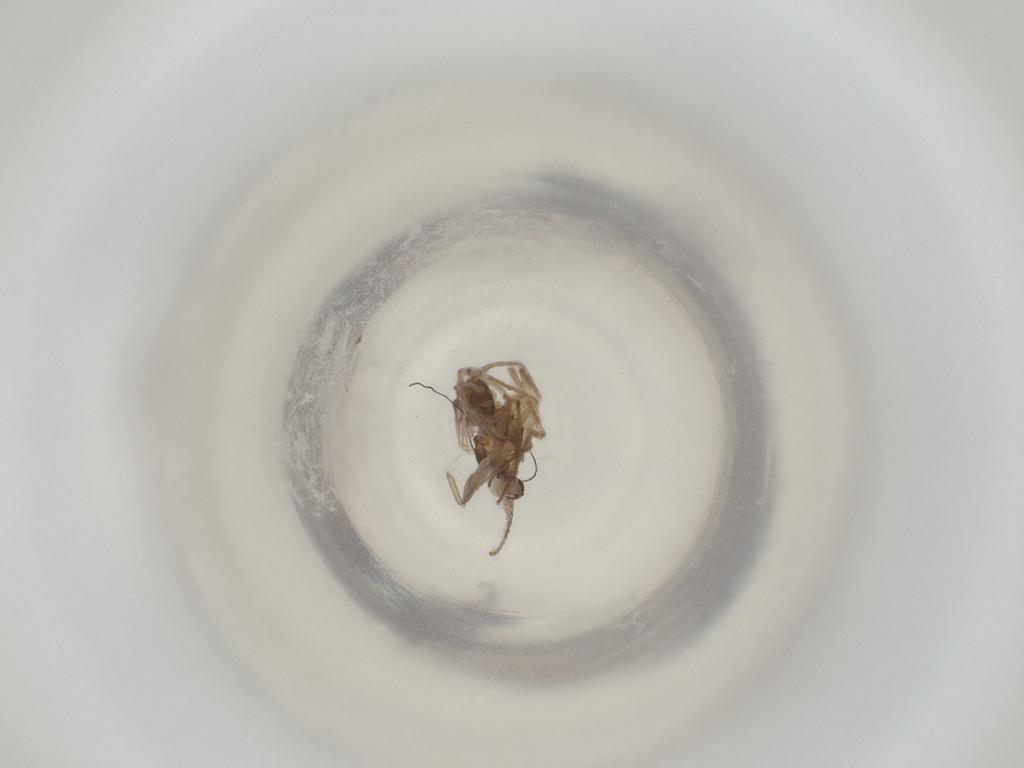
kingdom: Animalia
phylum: Arthropoda
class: Insecta
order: Diptera
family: Cecidomyiidae
